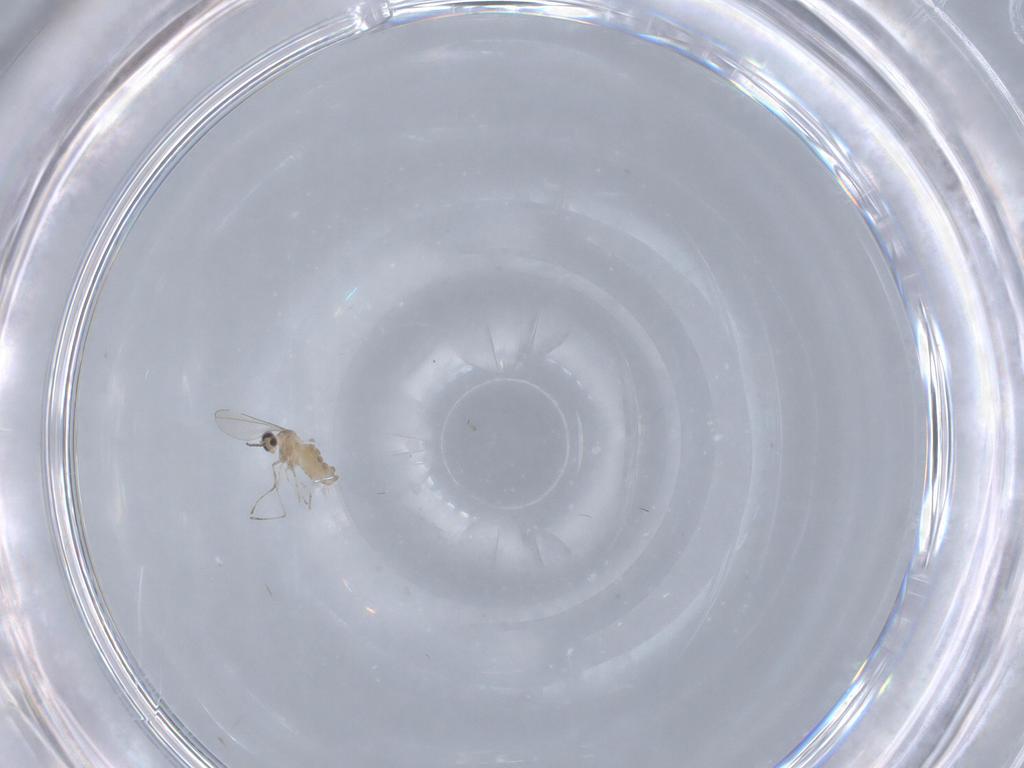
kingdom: Animalia
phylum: Arthropoda
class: Insecta
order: Diptera
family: Cecidomyiidae
